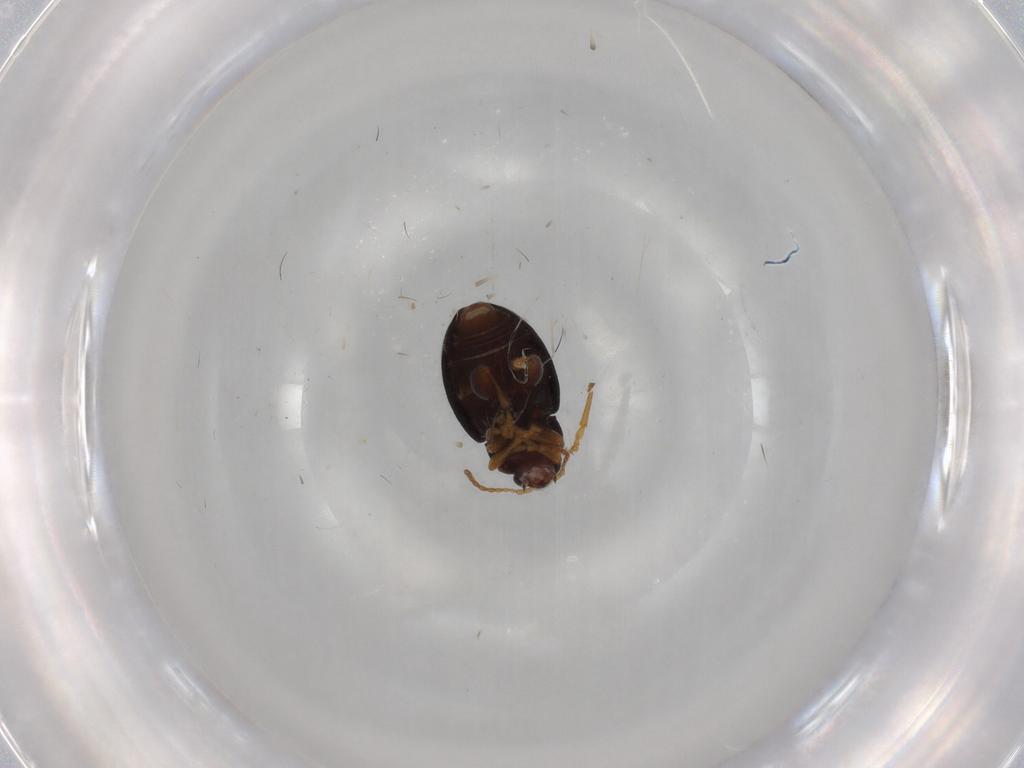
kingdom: Animalia
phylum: Arthropoda
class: Insecta
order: Coleoptera
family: Chrysomelidae
